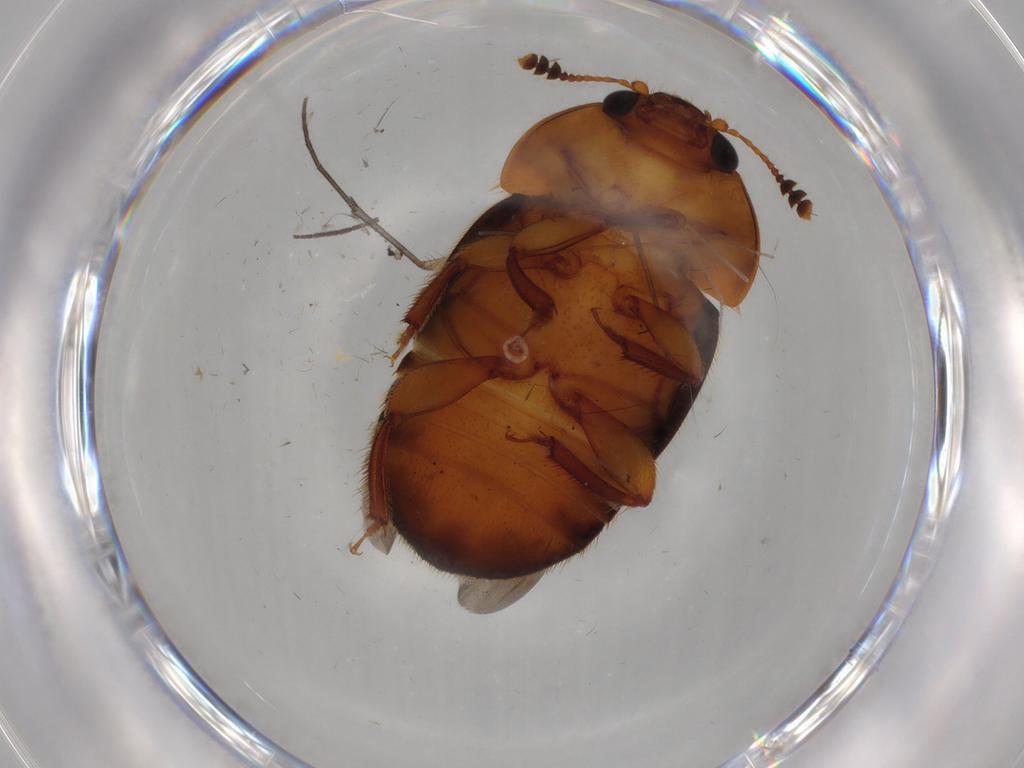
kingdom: Animalia
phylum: Arthropoda
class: Insecta
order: Coleoptera
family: Nitidulidae
